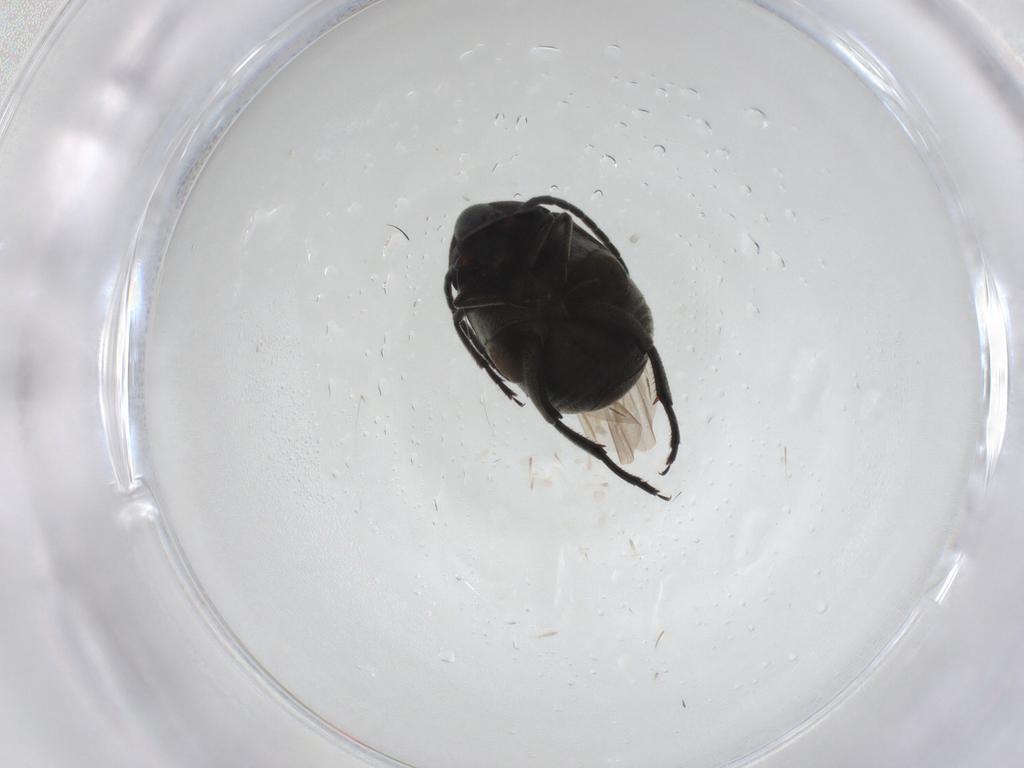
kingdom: Animalia
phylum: Arthropoda
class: Insecta
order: Coleoptera
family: Chrysomelidae
